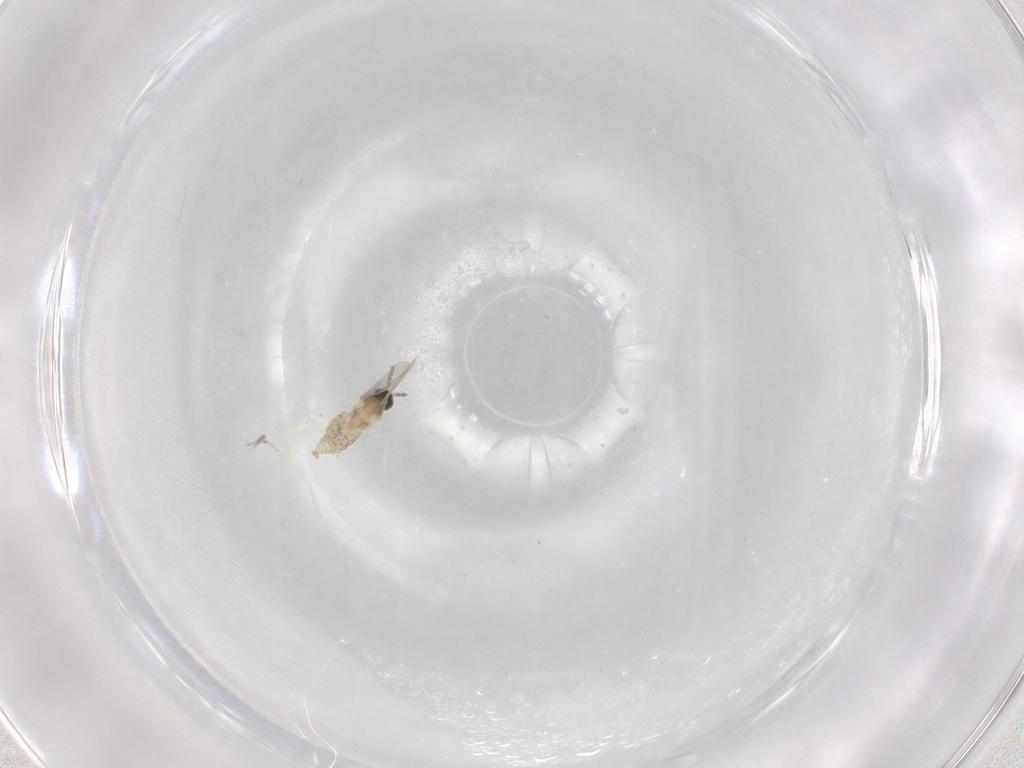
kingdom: Animalia
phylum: Arthropoda
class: Insecta
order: Diptera
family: Cecidomyiidae
